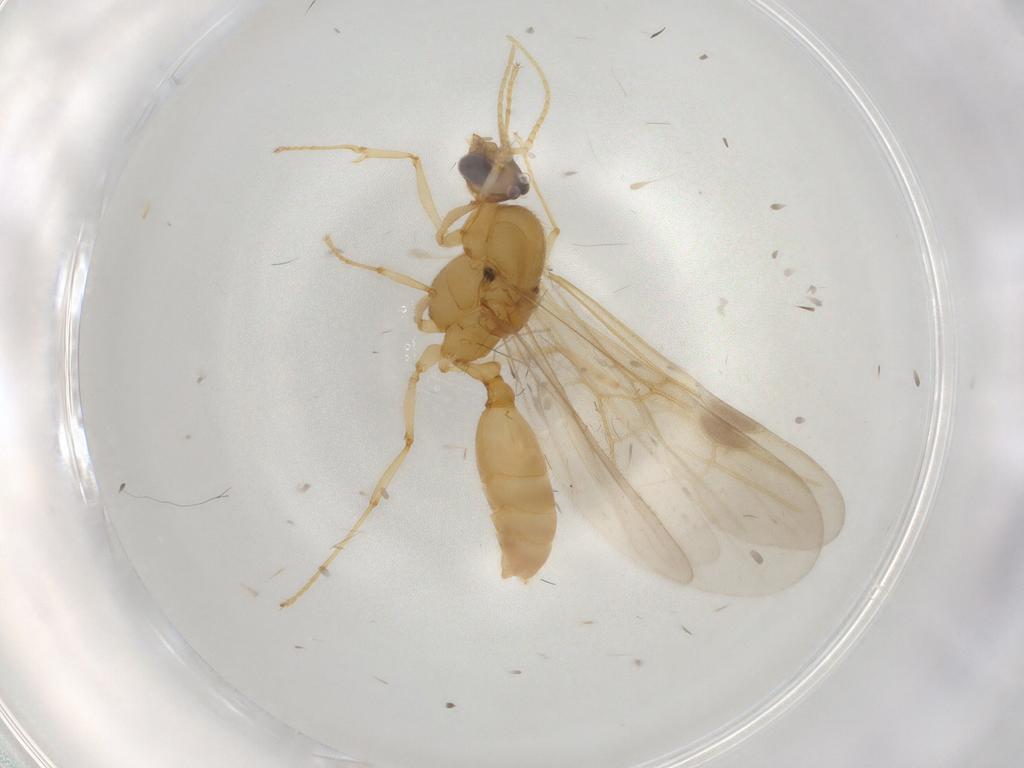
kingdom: Animalia
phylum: Arthropoda
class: Insecta
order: Hymenoptera
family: Formicidae
